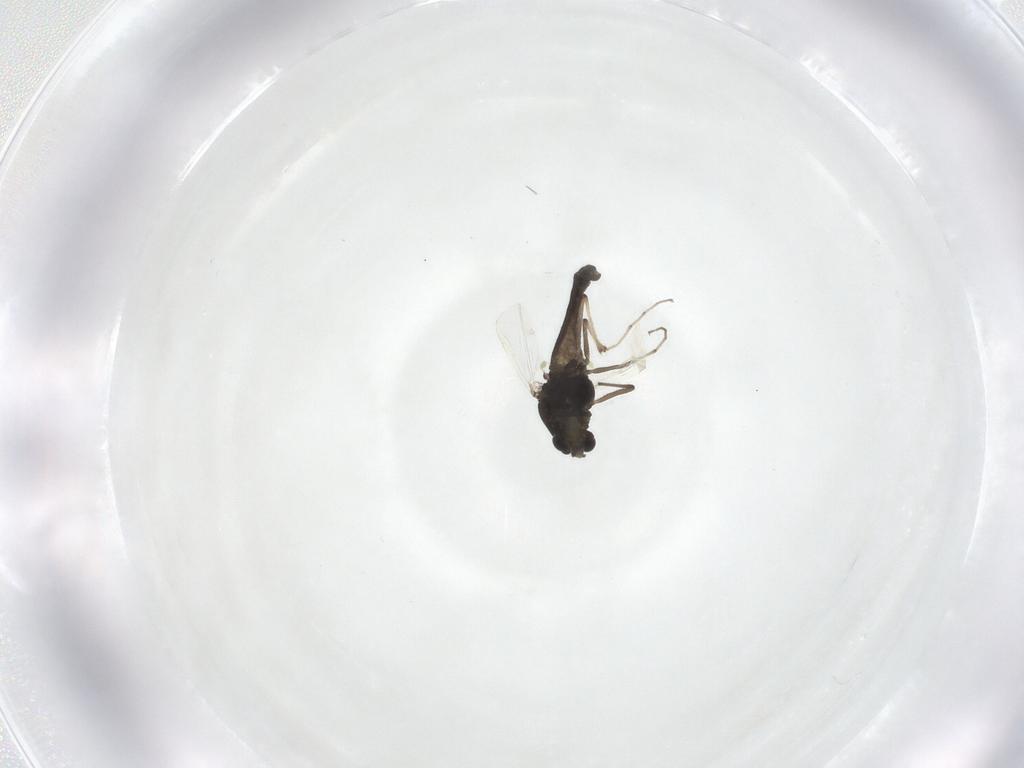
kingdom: Animalia
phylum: Arthropoda
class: Insecta
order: Diptera
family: Chironomidae
